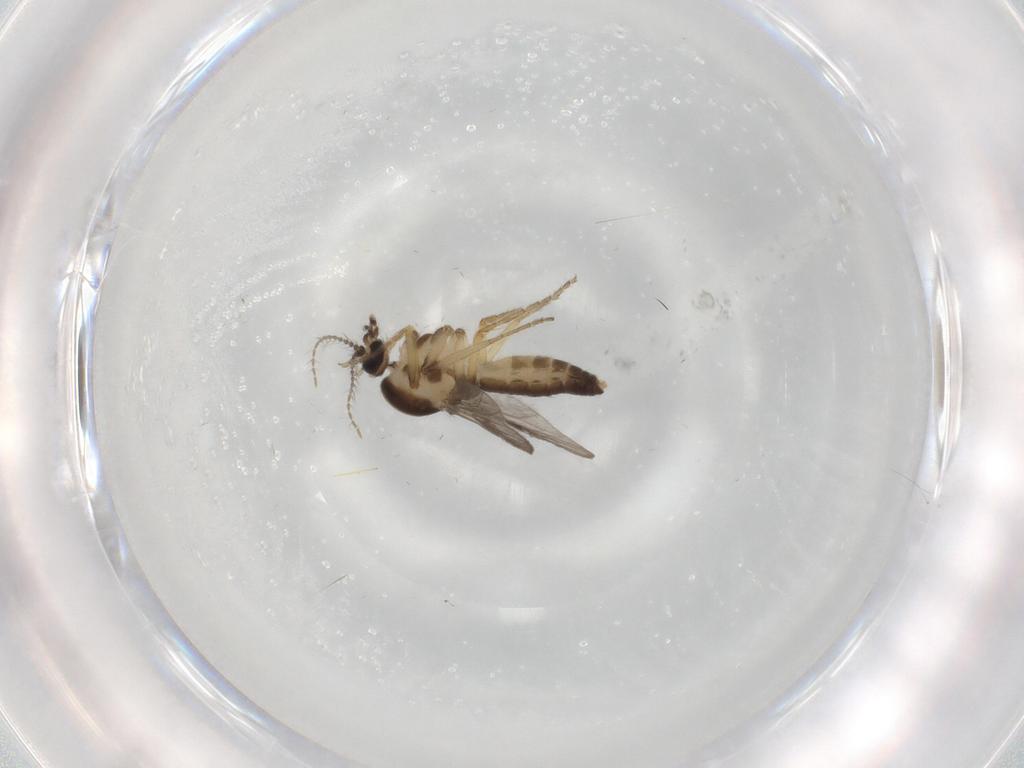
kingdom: Animalia
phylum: Arthropoda
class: Insecta
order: Diptera
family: Ceratopogonidae
